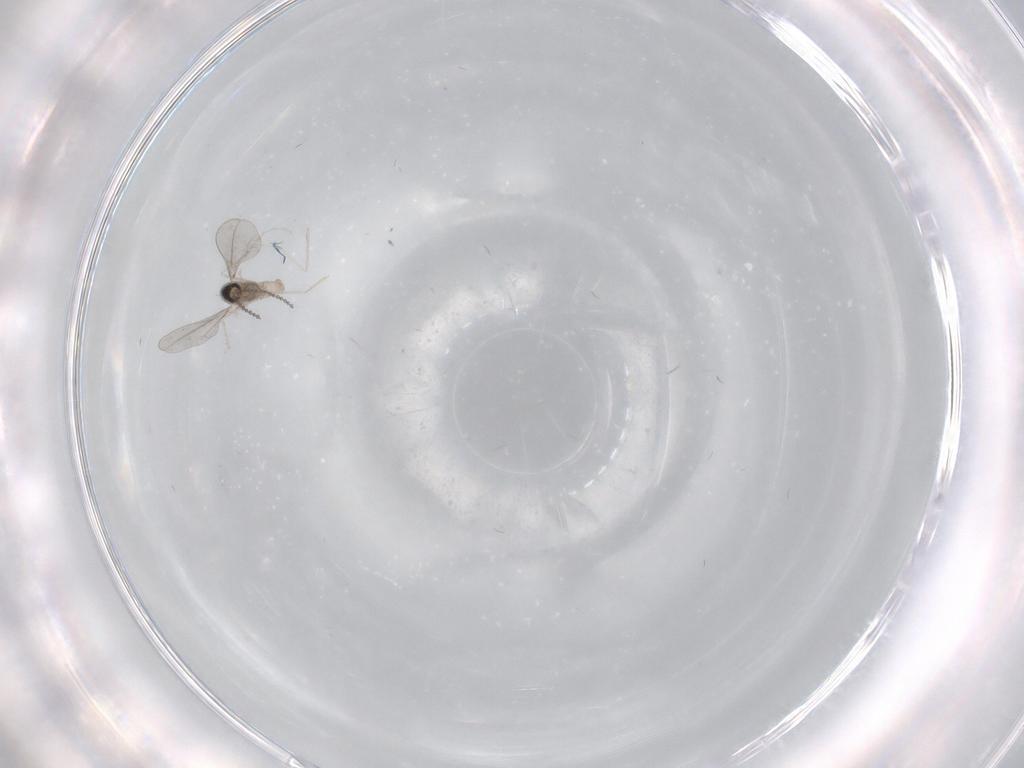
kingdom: Animalia
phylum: Arthropoda
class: Insecta
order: Diptera
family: Cecidomyiidae
